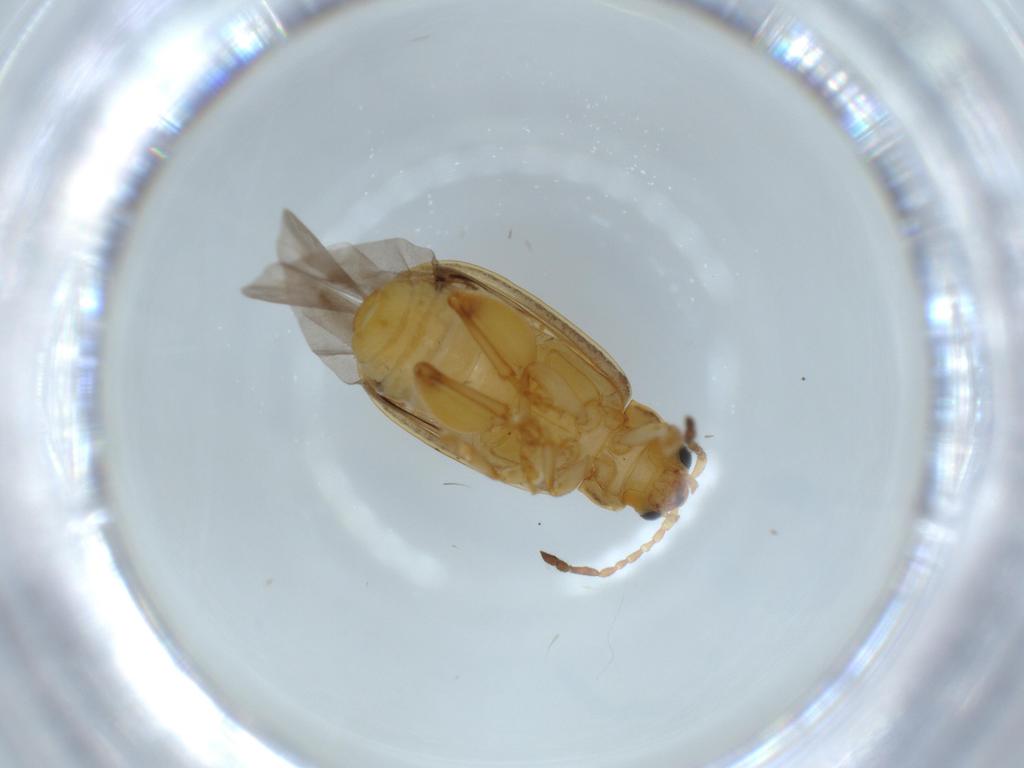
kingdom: Animalia
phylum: Arthropoda
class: Insecta
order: Coleoptera
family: Chrysomelidae
